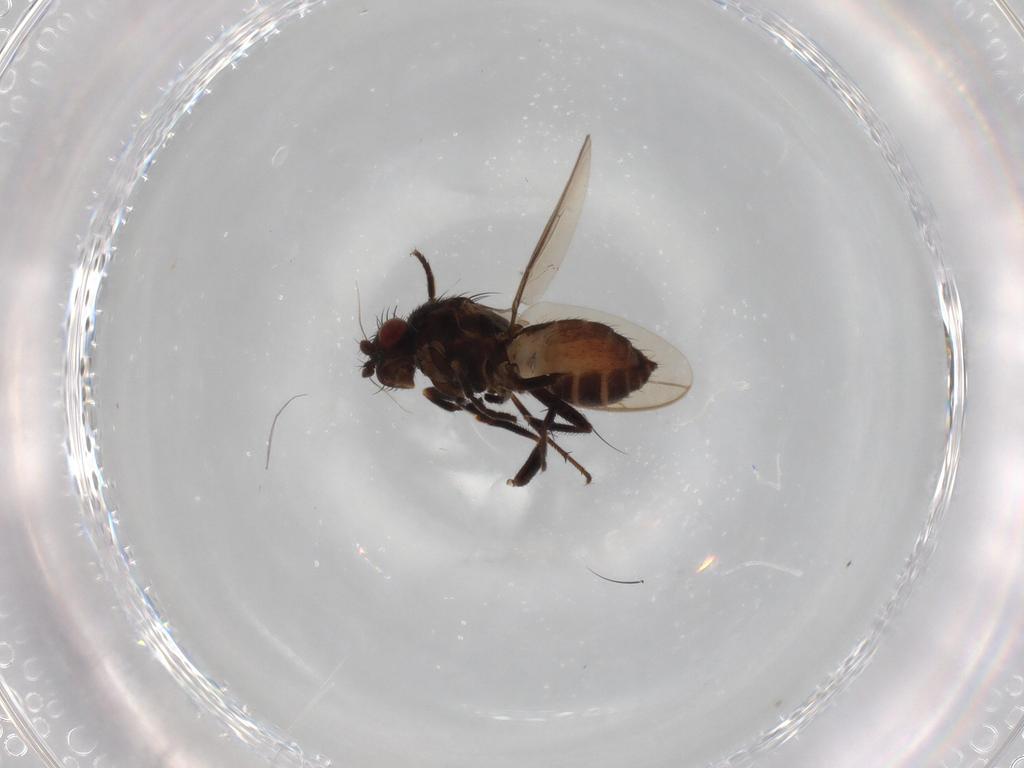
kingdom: Animalia
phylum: Arthropoda
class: Insecta
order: Diptera
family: Sphaeroceridae
